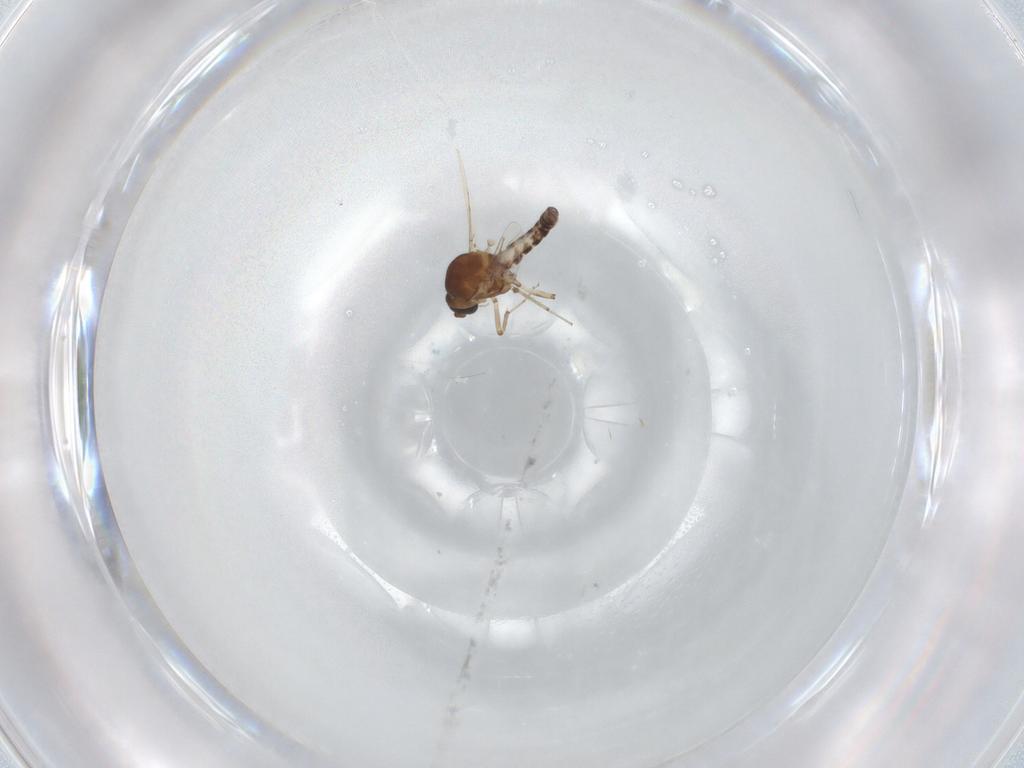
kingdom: Animalia
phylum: Arthropoda
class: Insecta
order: Diptera
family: Ceratopogonidae
